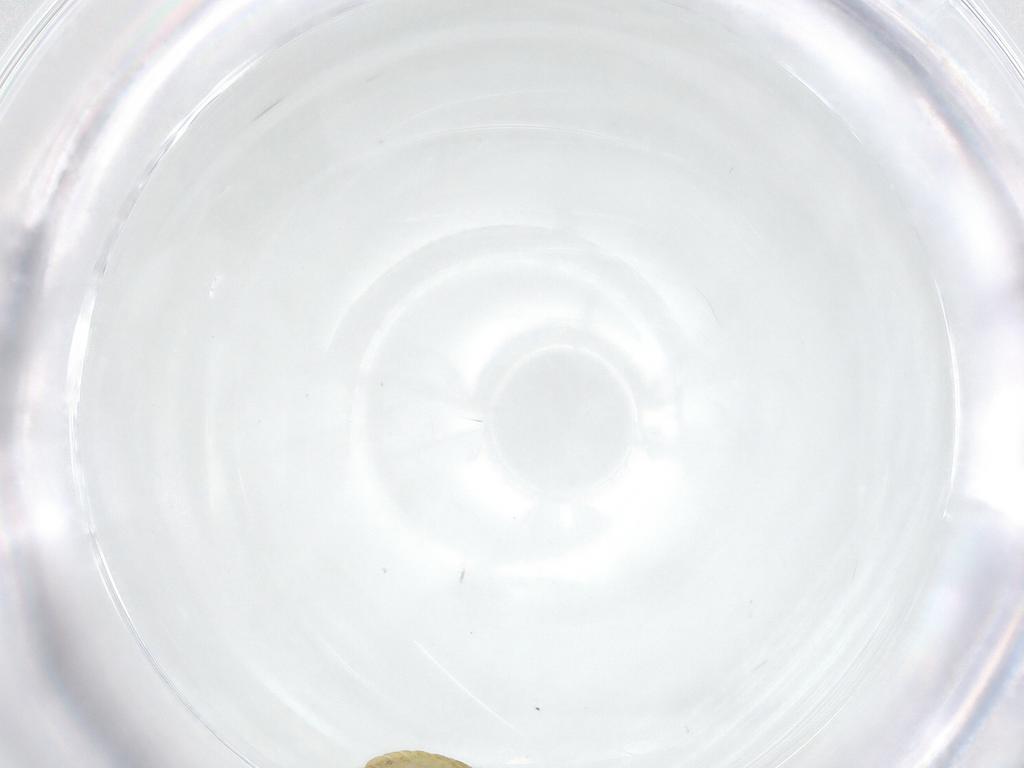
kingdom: Animalia
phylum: Arthropoda
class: Collembola
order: Entomobryomorpha
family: Entomobryidae
